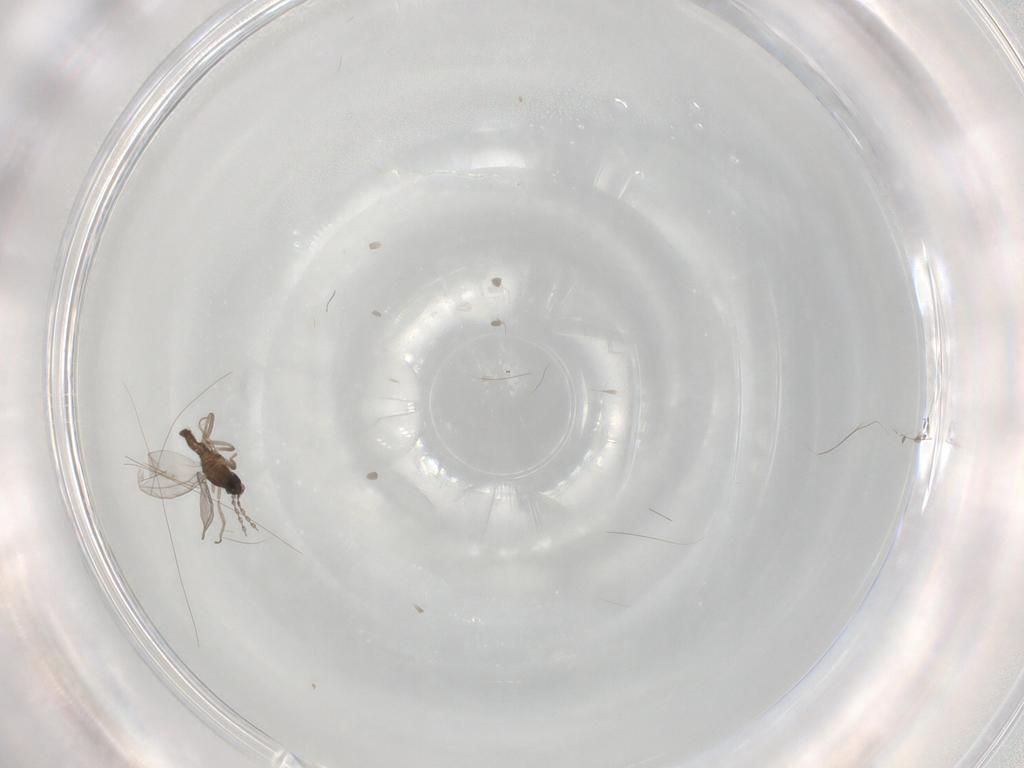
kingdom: Animalia
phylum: Arthropoda
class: Insecta
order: Diptera
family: Cecidomyiidae
